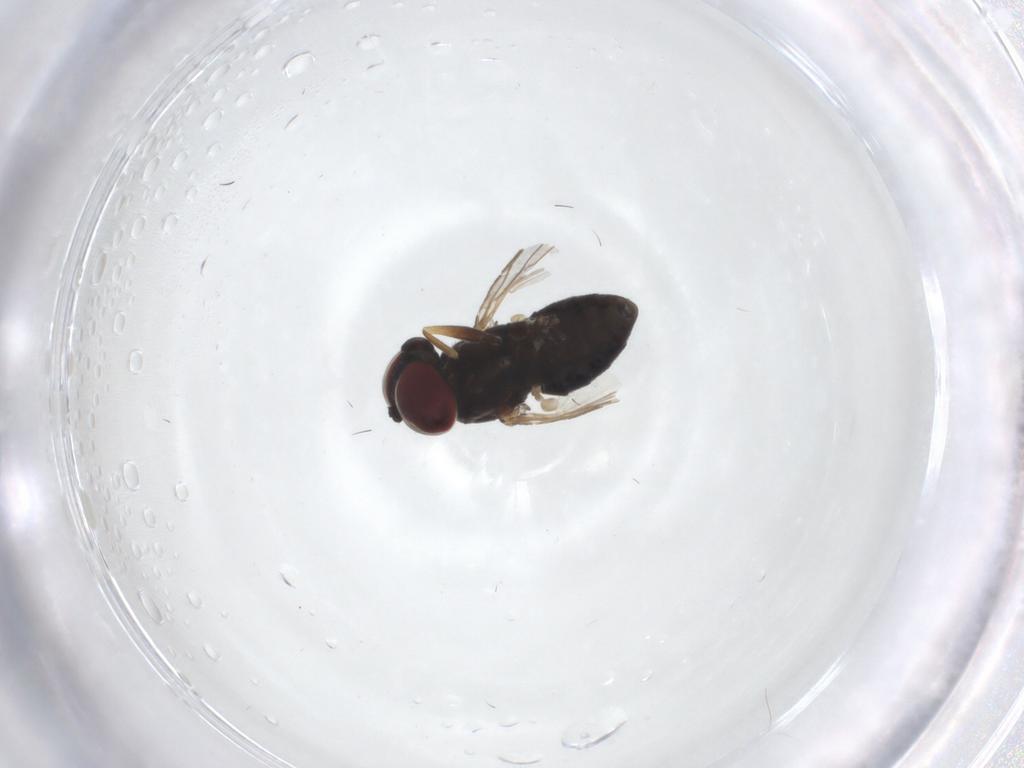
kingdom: Animalia
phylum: Arthropoda
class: Insecta
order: Diptera
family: Dolichopodidae
